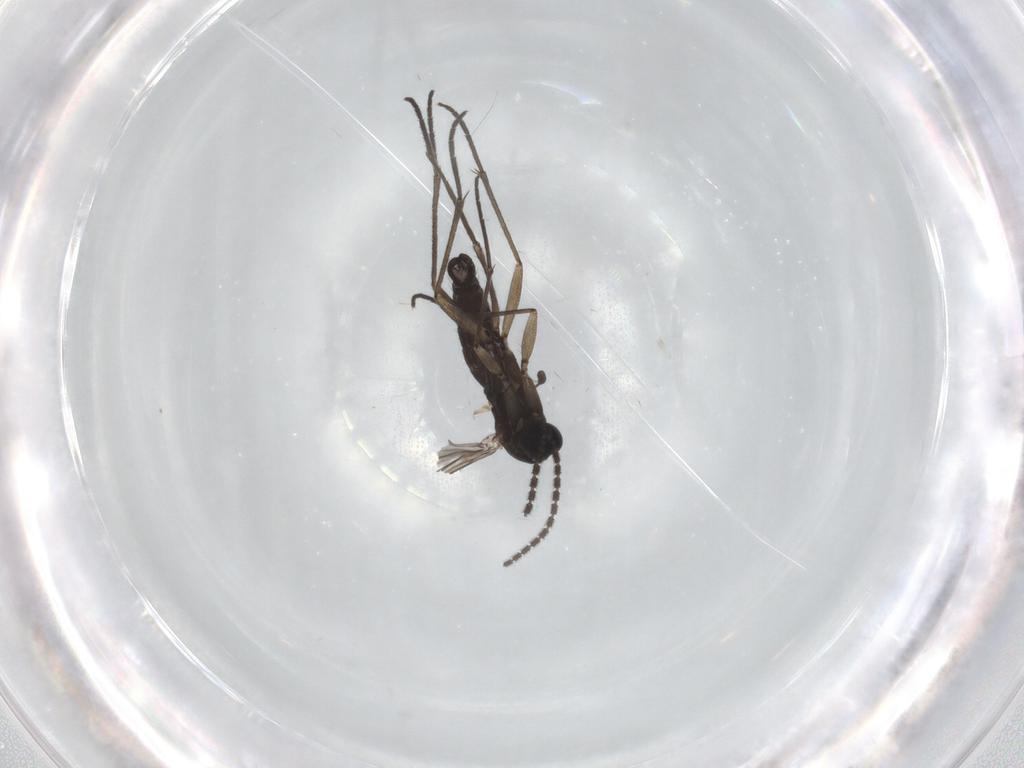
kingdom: Animalia
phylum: Arthropoda
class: Insecta
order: Diptera
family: Sciaridae
